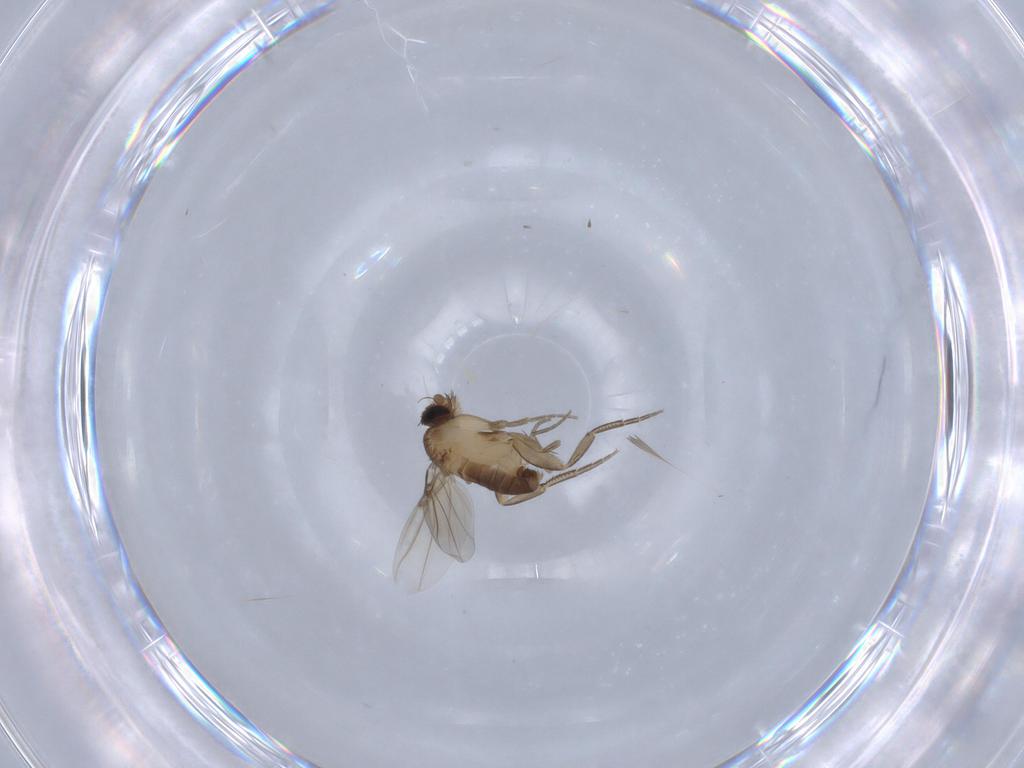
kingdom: Animalia
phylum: Arthropoda
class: Insecta
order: Diptera
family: Phoridae
